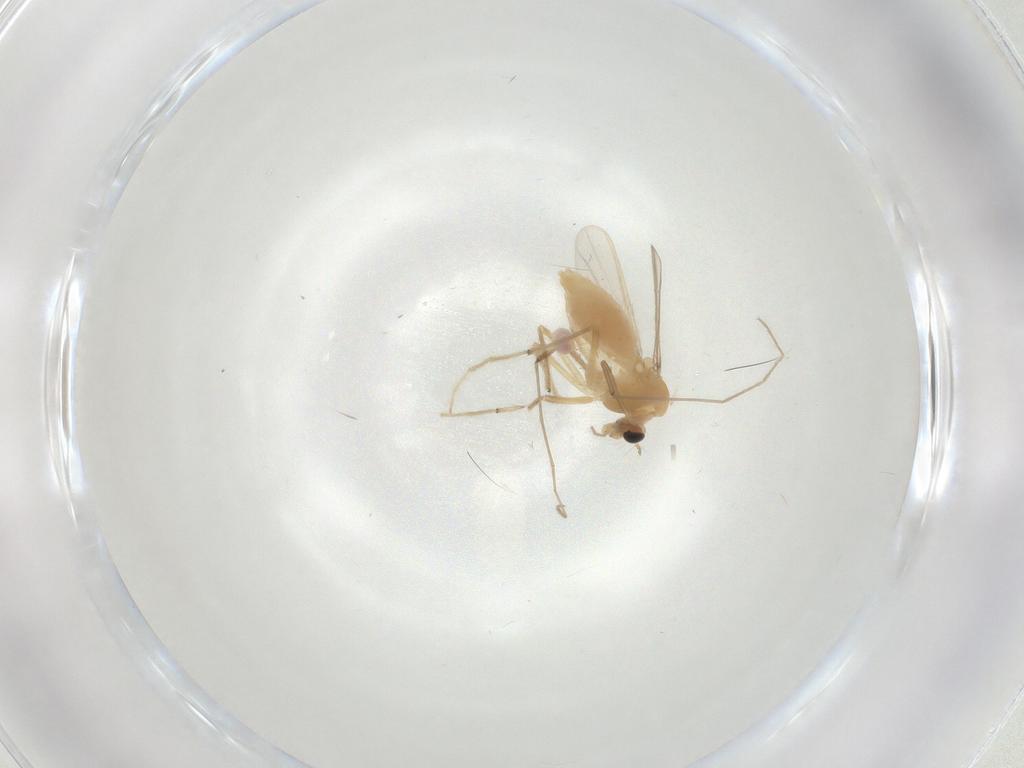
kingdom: Animalia
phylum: Arthropoda
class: Insecta
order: Diptera
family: Chironomidae
